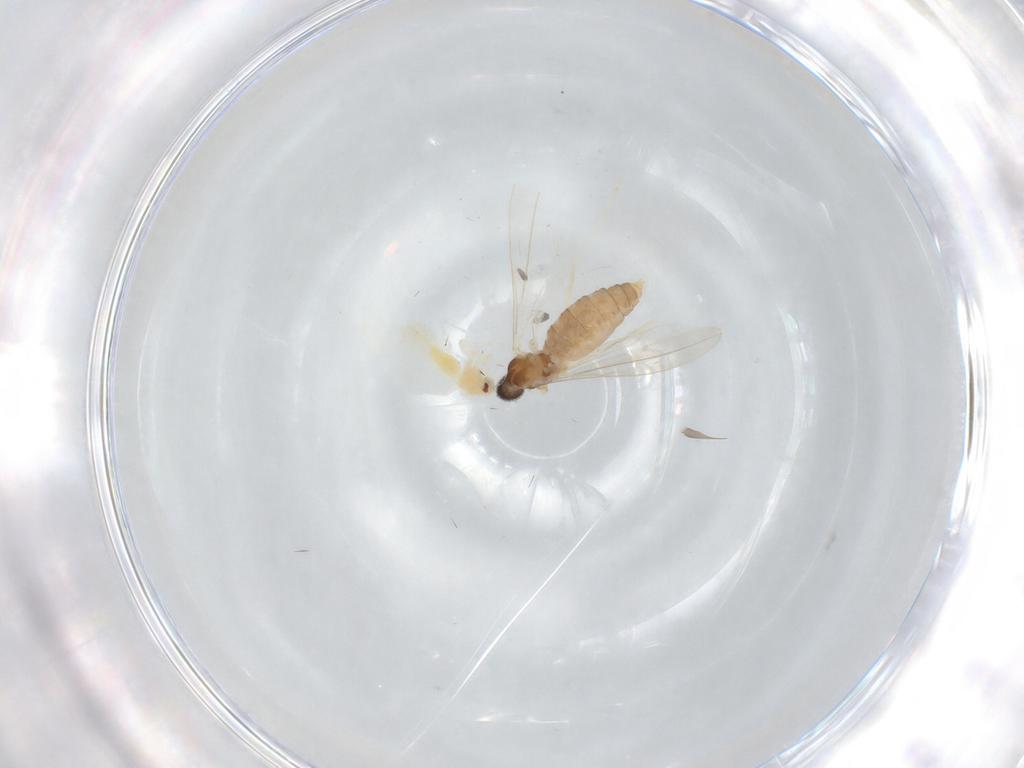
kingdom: Animalia
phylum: Arthropoda
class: Insecta
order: Diptera
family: Cecidomyiidae
